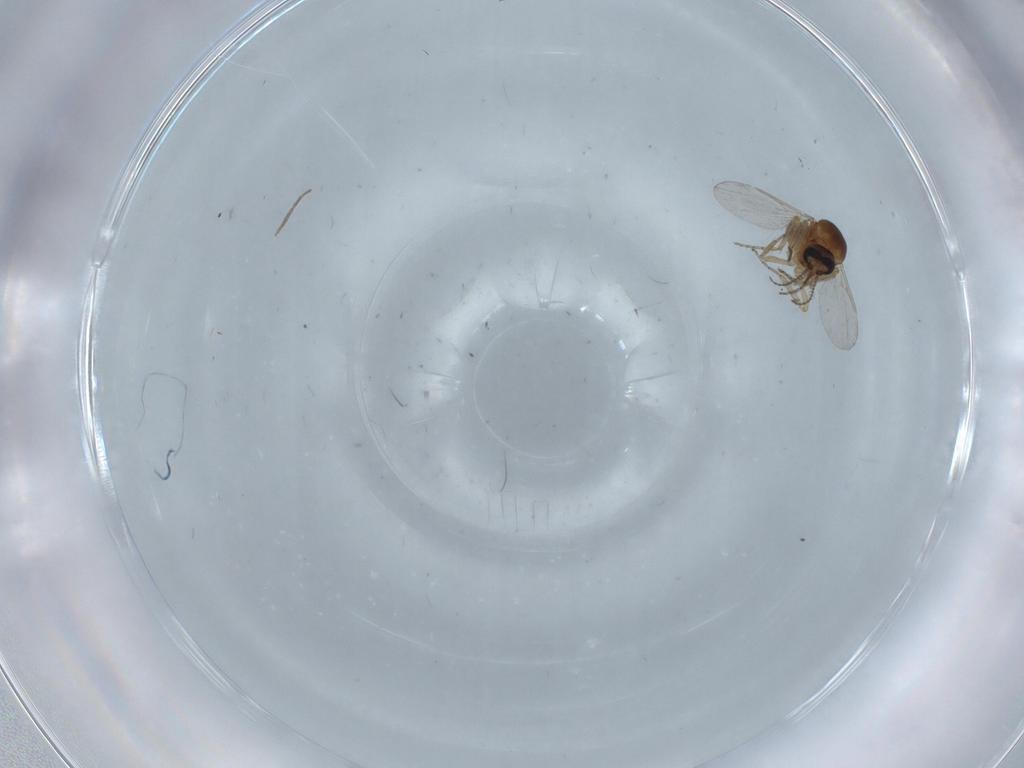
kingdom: Animalia
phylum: Arthropoda
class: Insecta
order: Diptera
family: Ceratopogonidae
